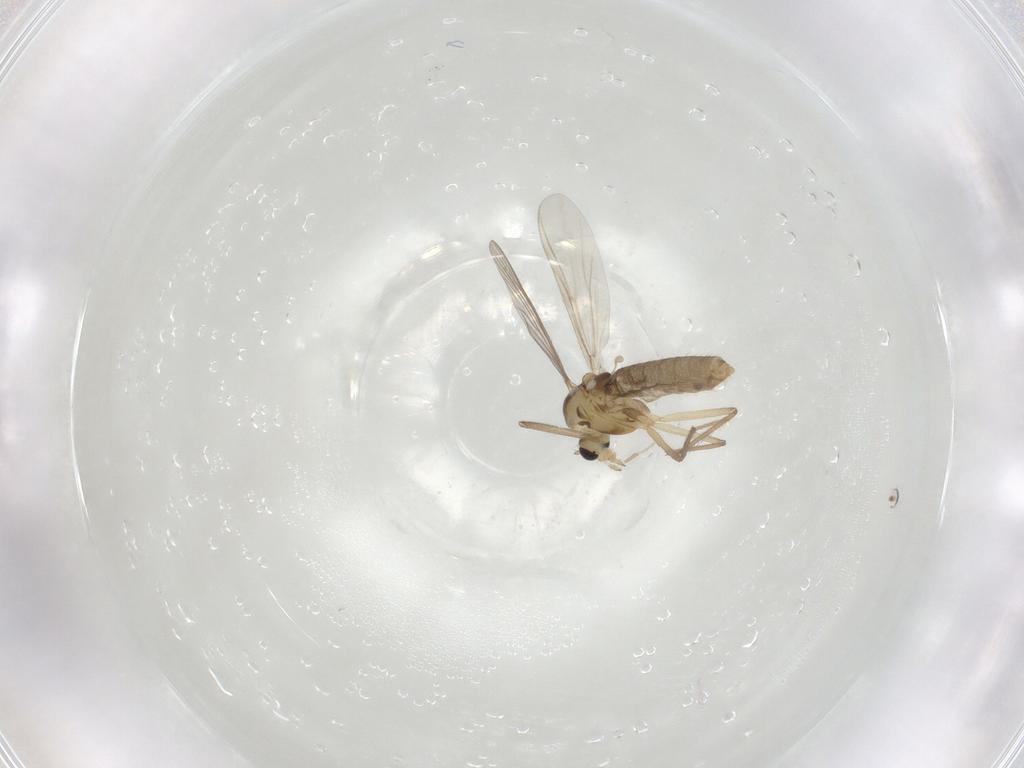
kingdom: Animalia
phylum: Arthropoda
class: Insecta
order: Diptera
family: Chironomidae
